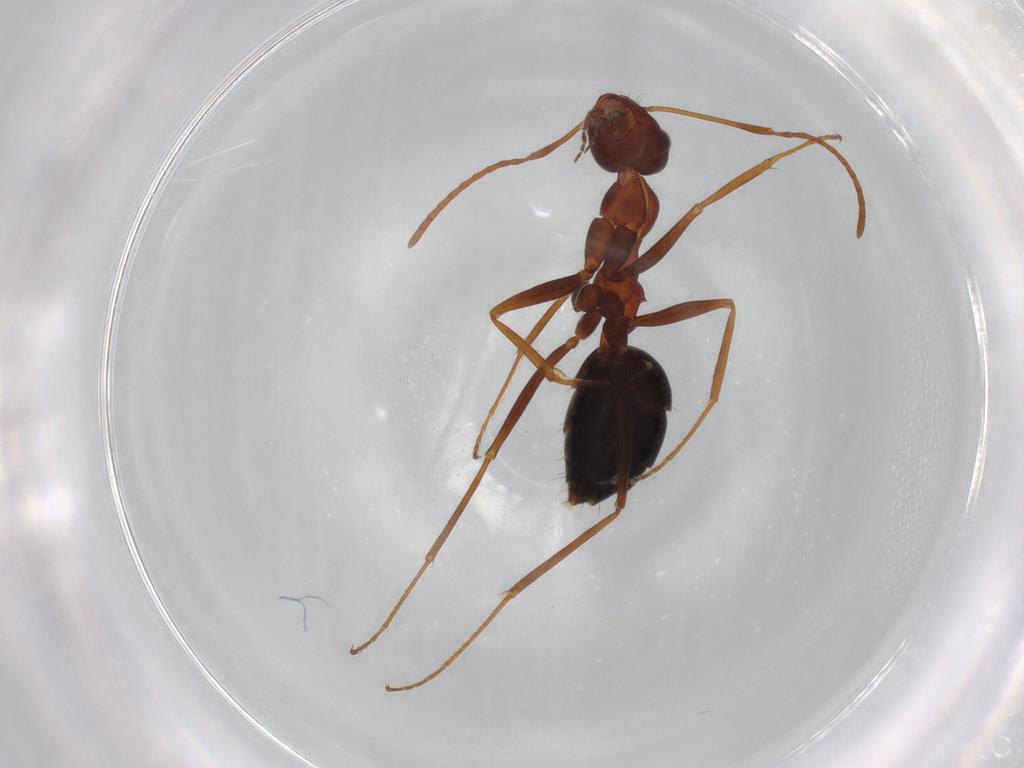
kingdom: Animalia
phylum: Arthropoda
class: Insecta
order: Hymenoptera
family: Formicidae
